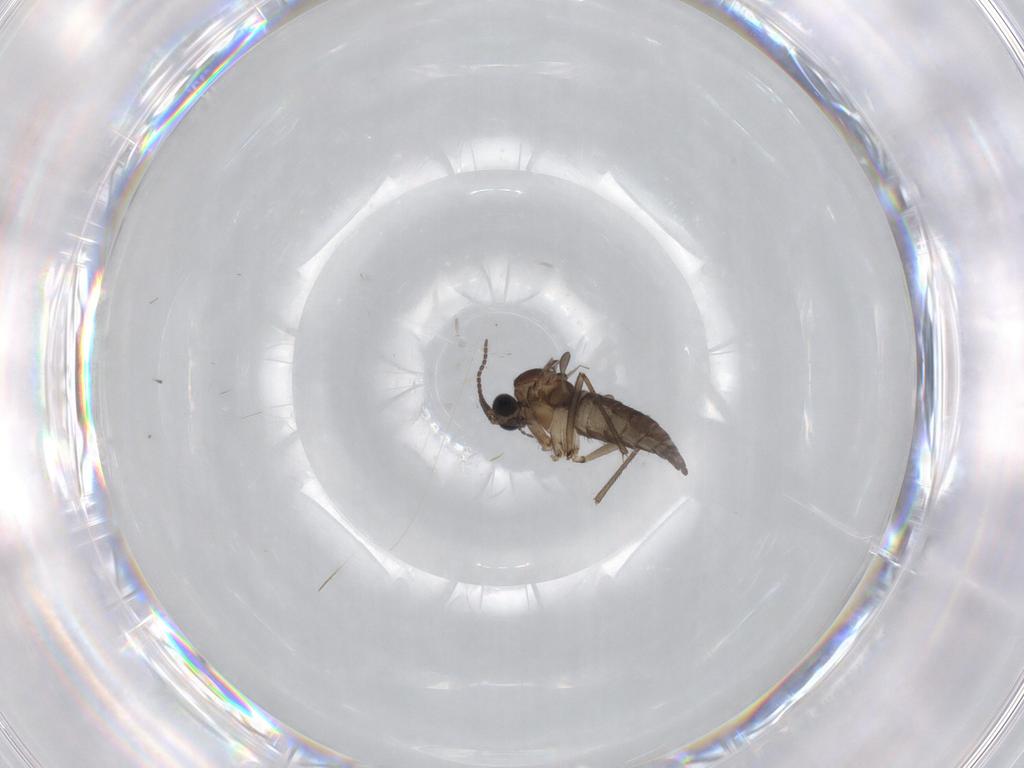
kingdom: Animalia
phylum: Arthropoda
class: Insecta
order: Diptera
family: Sciaridae
